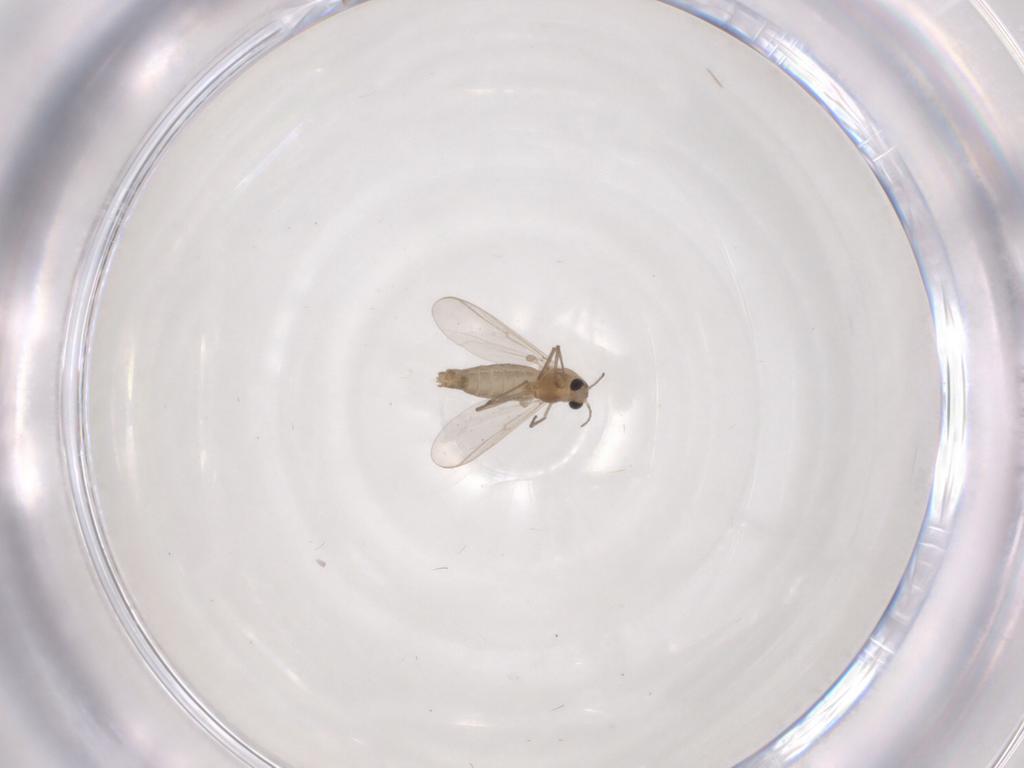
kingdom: Animalia
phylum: Arthropoda
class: Insecta
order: Diptera
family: Chironomidae
